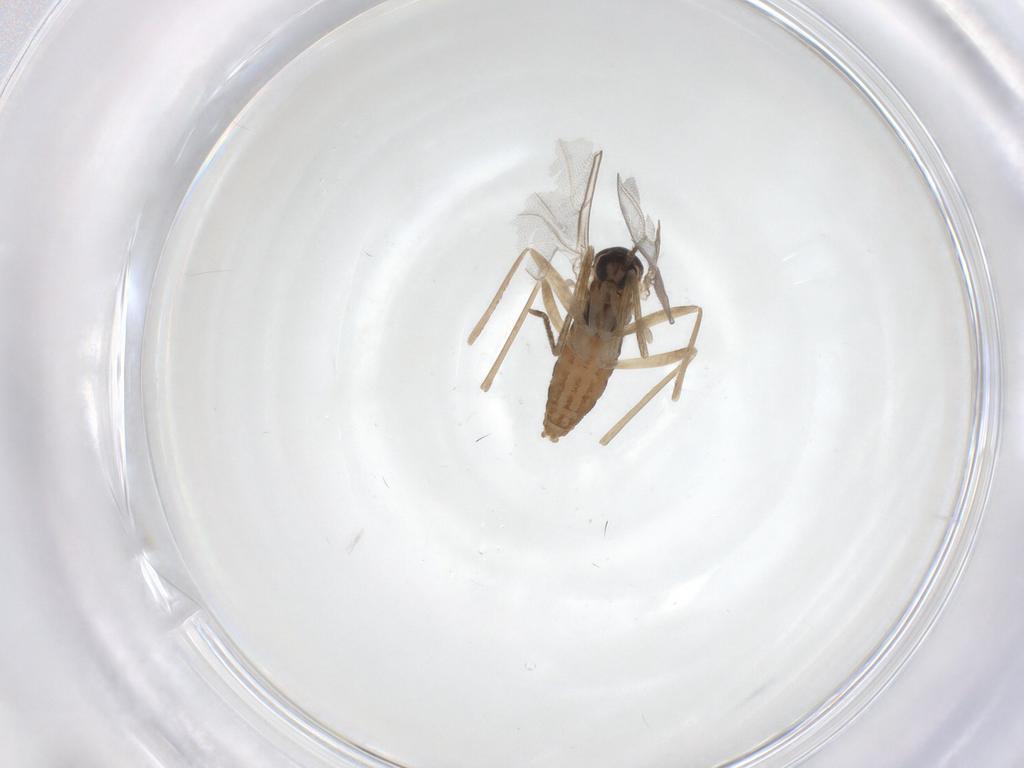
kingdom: Animalia
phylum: Arthropoda
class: Insecta
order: Diptera
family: Cecidomyiidae
